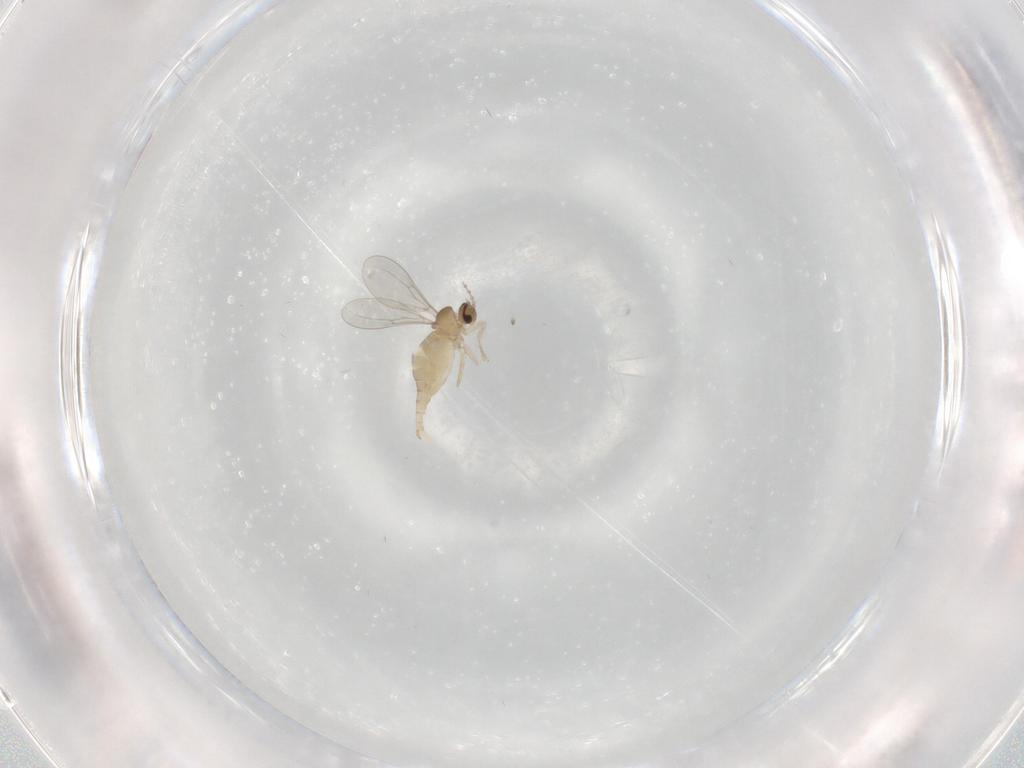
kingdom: Animalia
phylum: Arthropoda
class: Insecta
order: Diptera
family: Cecidomyiidae
